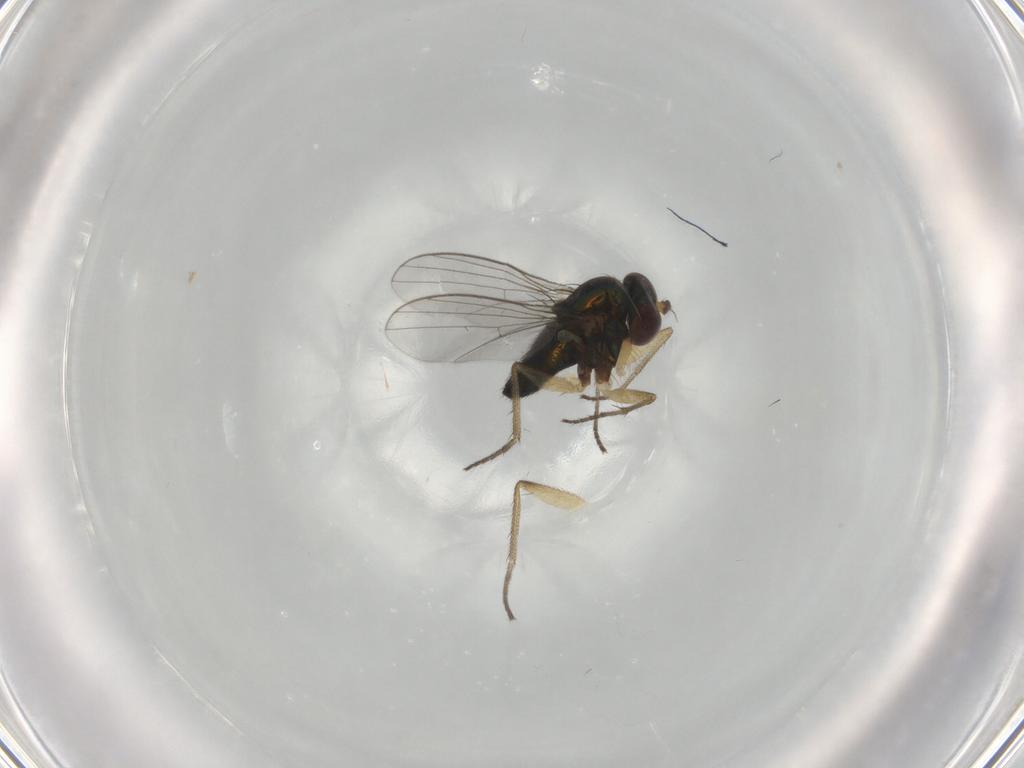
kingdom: Animalia
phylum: Arthropoda
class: Insecta
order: Diptera
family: Dolichopodidae
